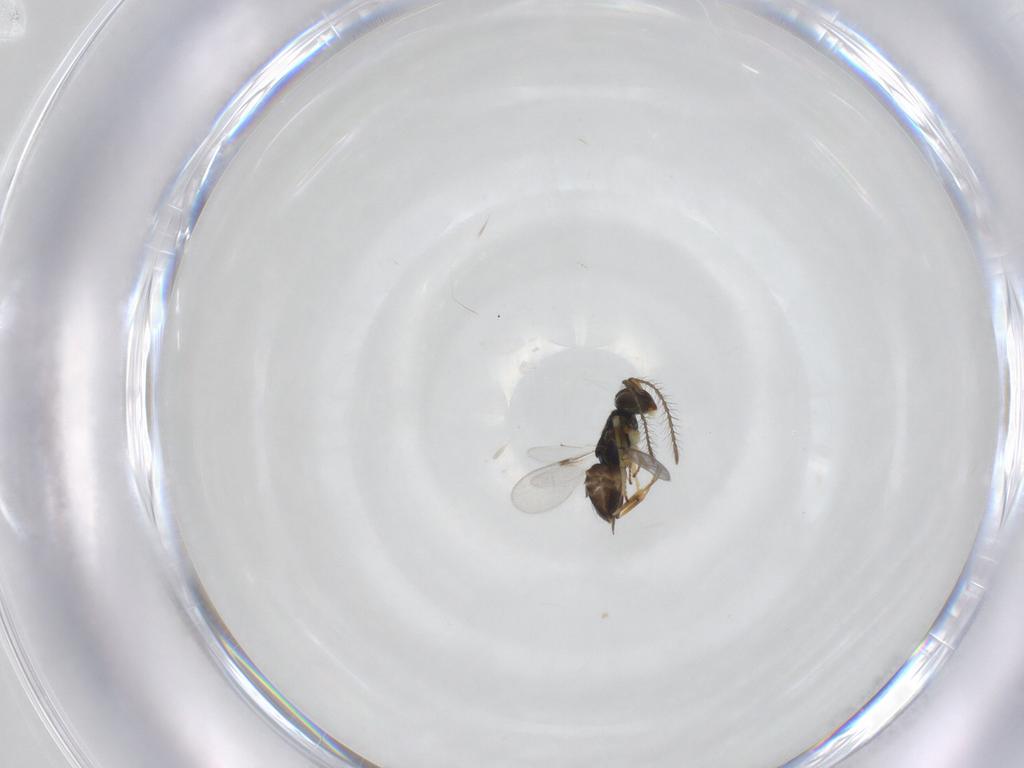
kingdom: Animalia
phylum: Arthropoda
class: Insecta
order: Hymenoptera
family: Encyrtidae
